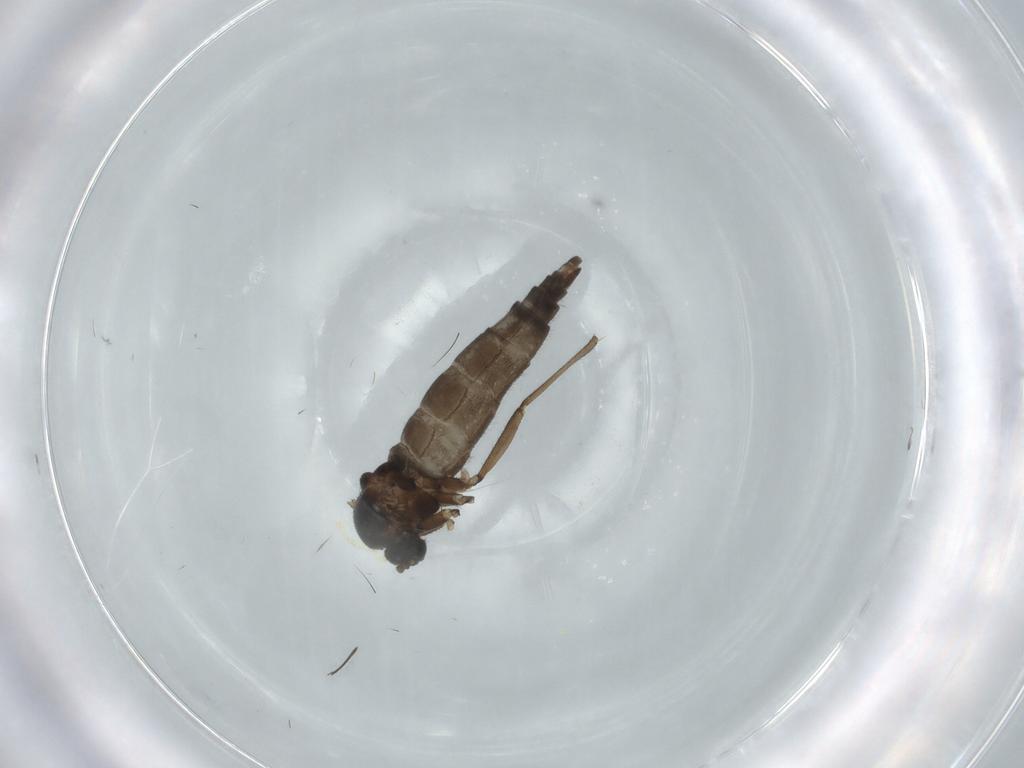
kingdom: Animalia
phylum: Arthropoda
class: Insecta
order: Diptera
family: Sciaridae
